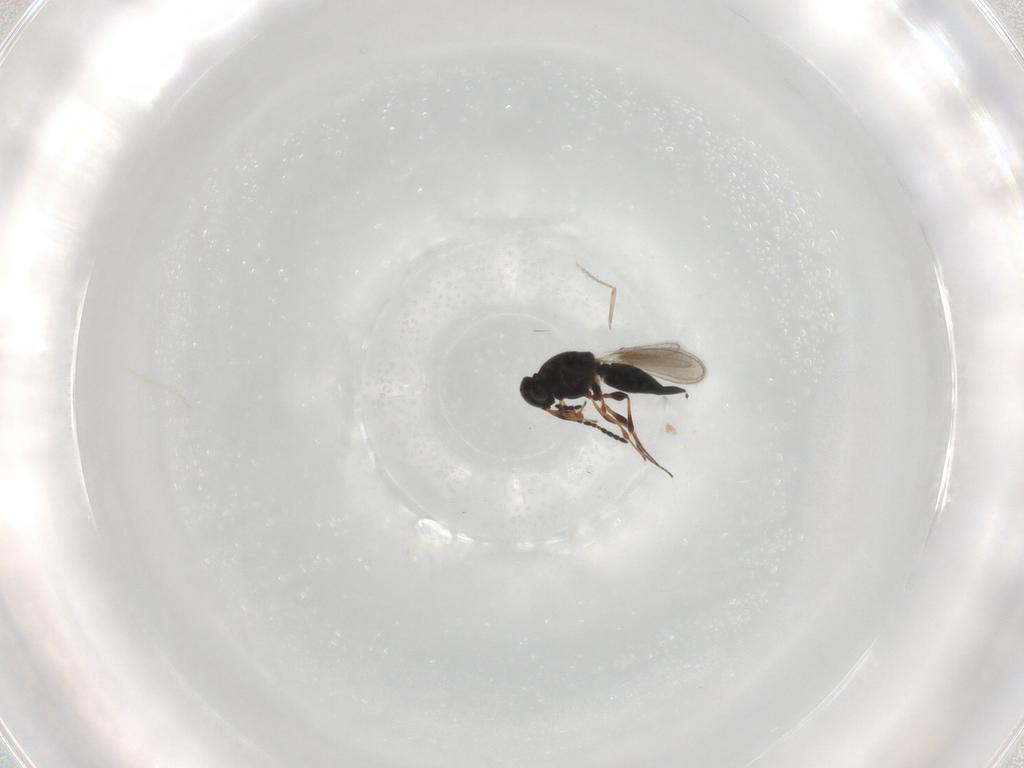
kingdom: Animalia
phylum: Arthropoda
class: Insecta
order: Hymenoptera
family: Platygastridae
